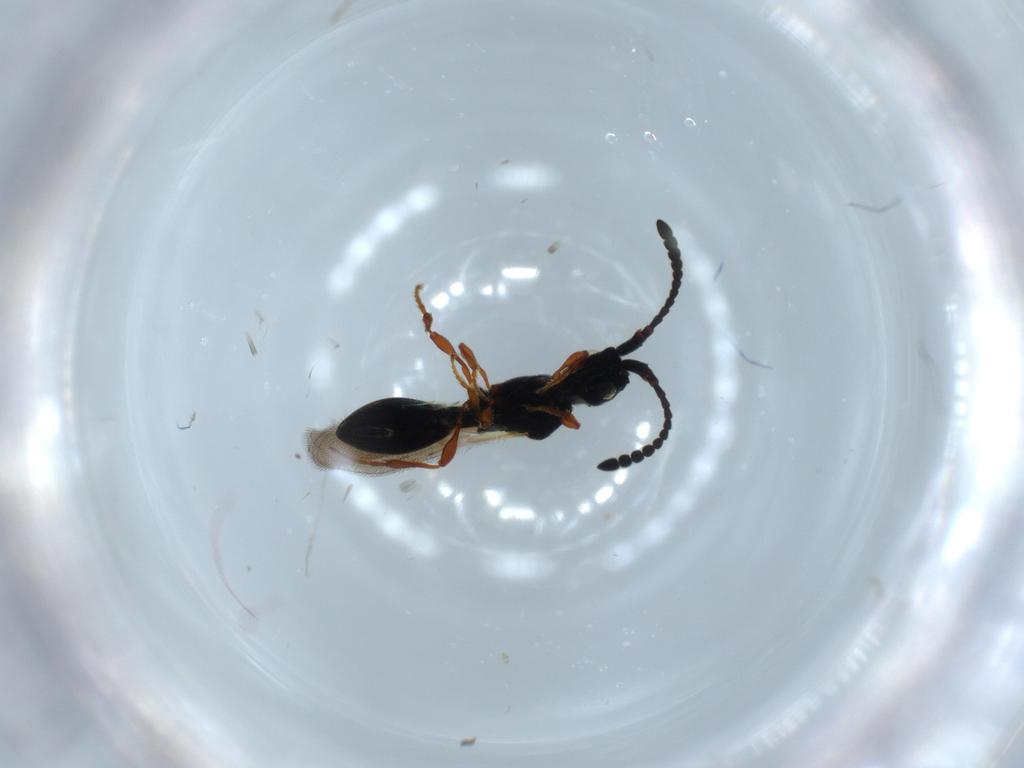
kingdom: Animalia
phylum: Arthropoda
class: Insecta
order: Hymenoptera
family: Diapriidae
